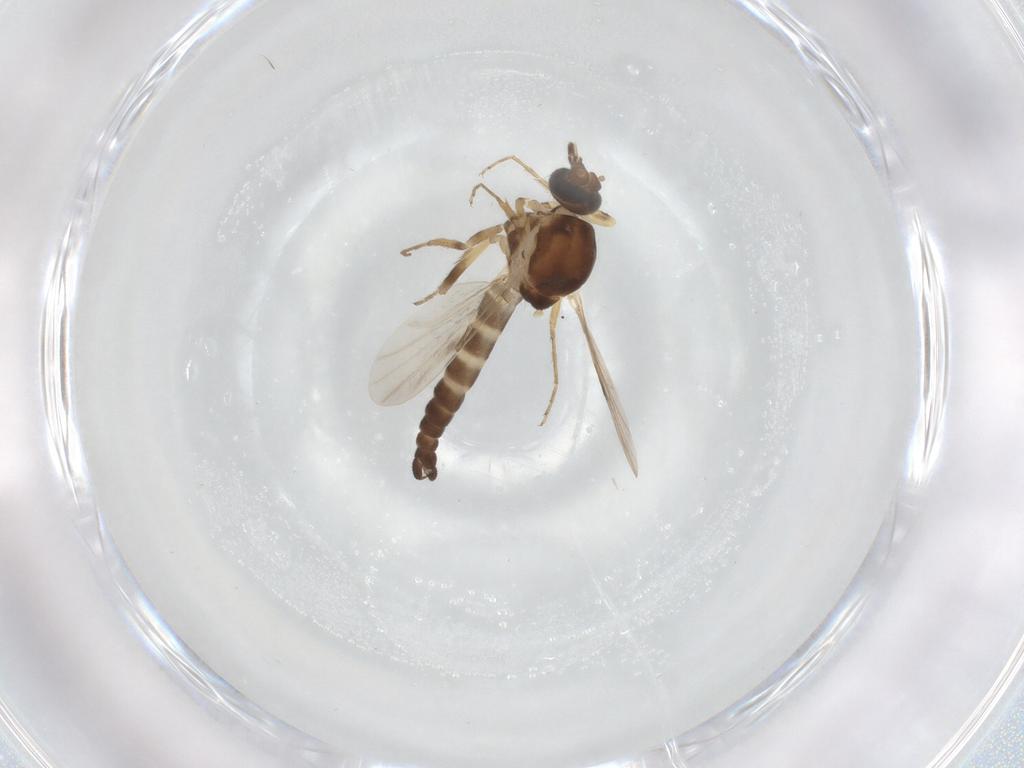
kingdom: Animalia
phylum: Arthropoda
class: Insecta
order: Diptera
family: Ceratopogonidae
